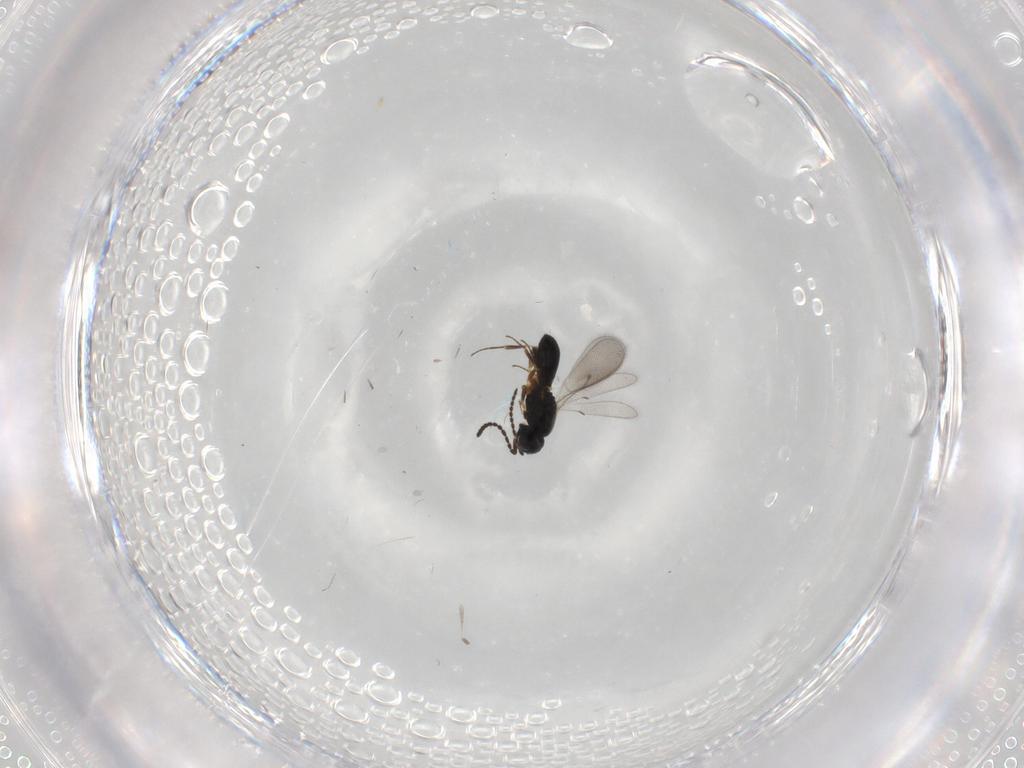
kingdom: Animalia
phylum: Arthropoda
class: Insecta
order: Hymenoptera
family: Scelionidae
